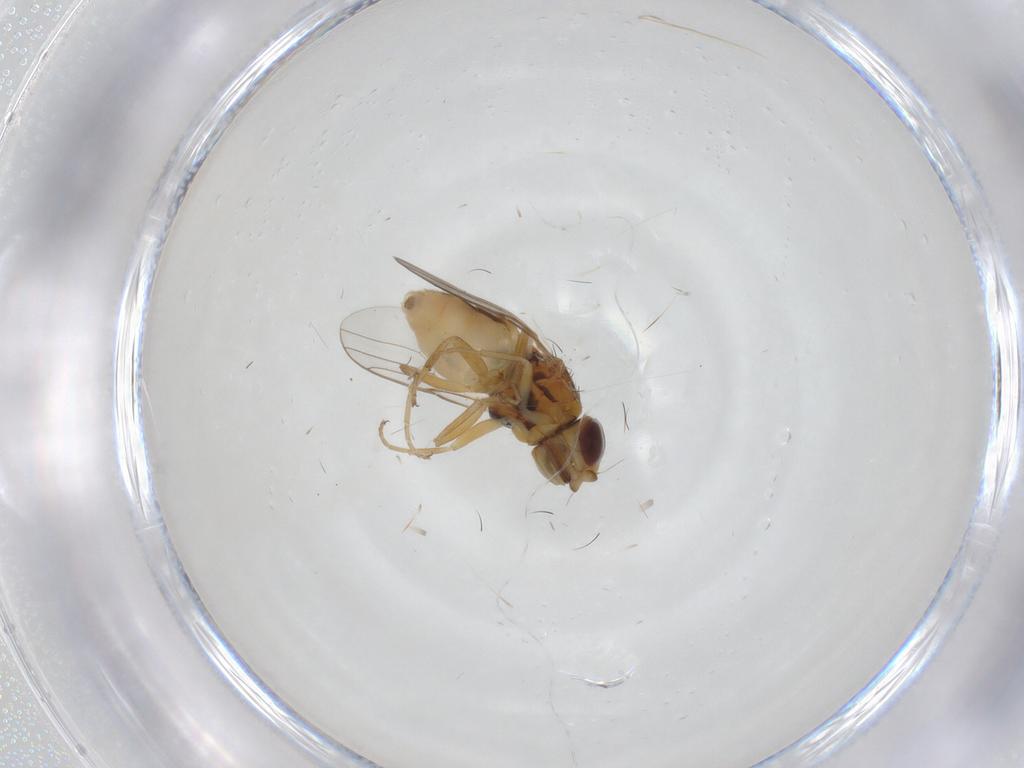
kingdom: Animalia
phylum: Arthropoda
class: Insecta
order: Diptera
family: Chloropidae
